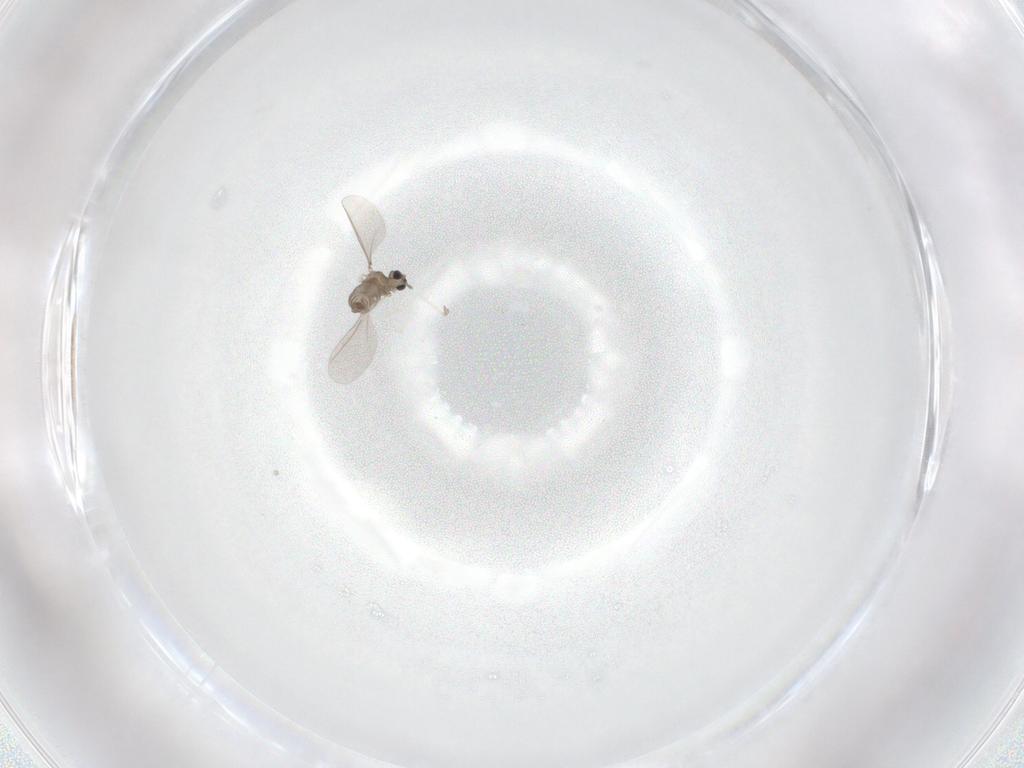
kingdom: Animalia
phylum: Arthropoda
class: Insecta
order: Diptera
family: Cecidomyiidae
